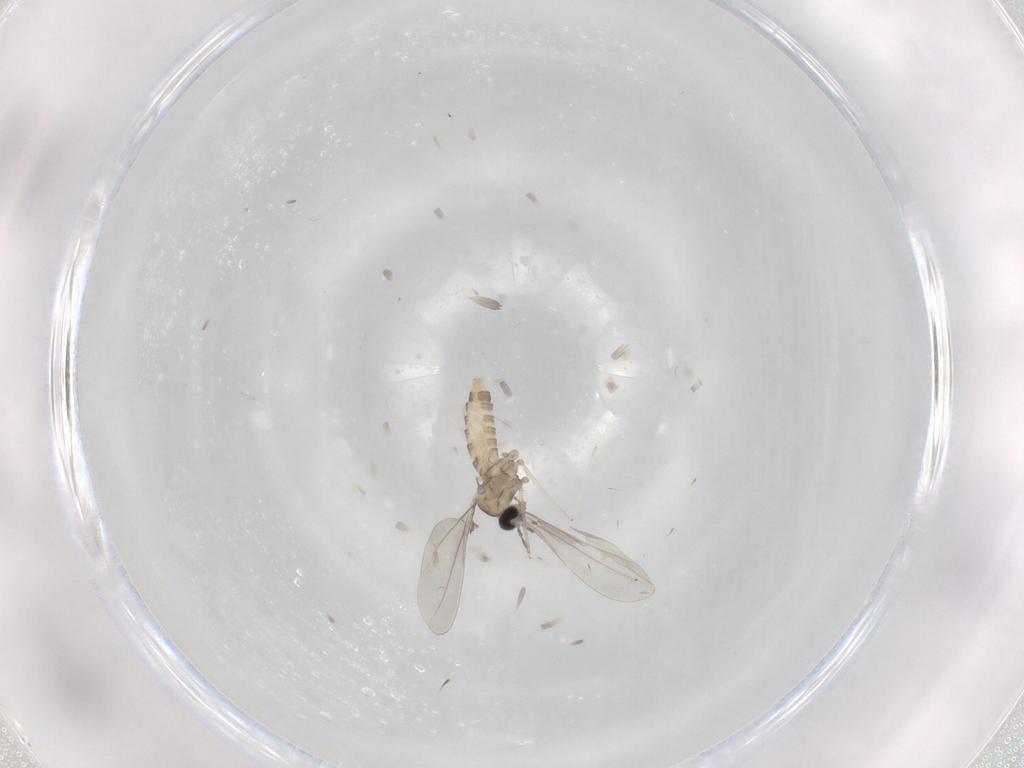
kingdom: Animalia
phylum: Arthropoda
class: Insecta
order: Diptera
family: Cecidomyiidae
